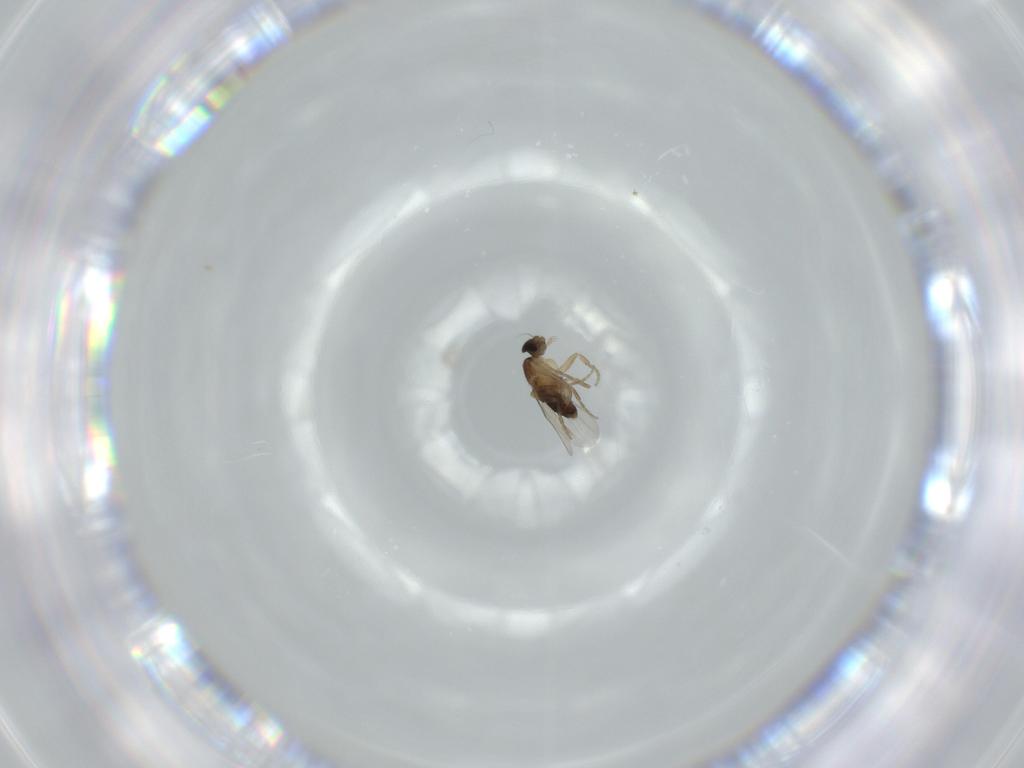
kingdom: Animalia
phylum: Arthropoda
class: Insecta
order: Diptera
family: Phoridae
